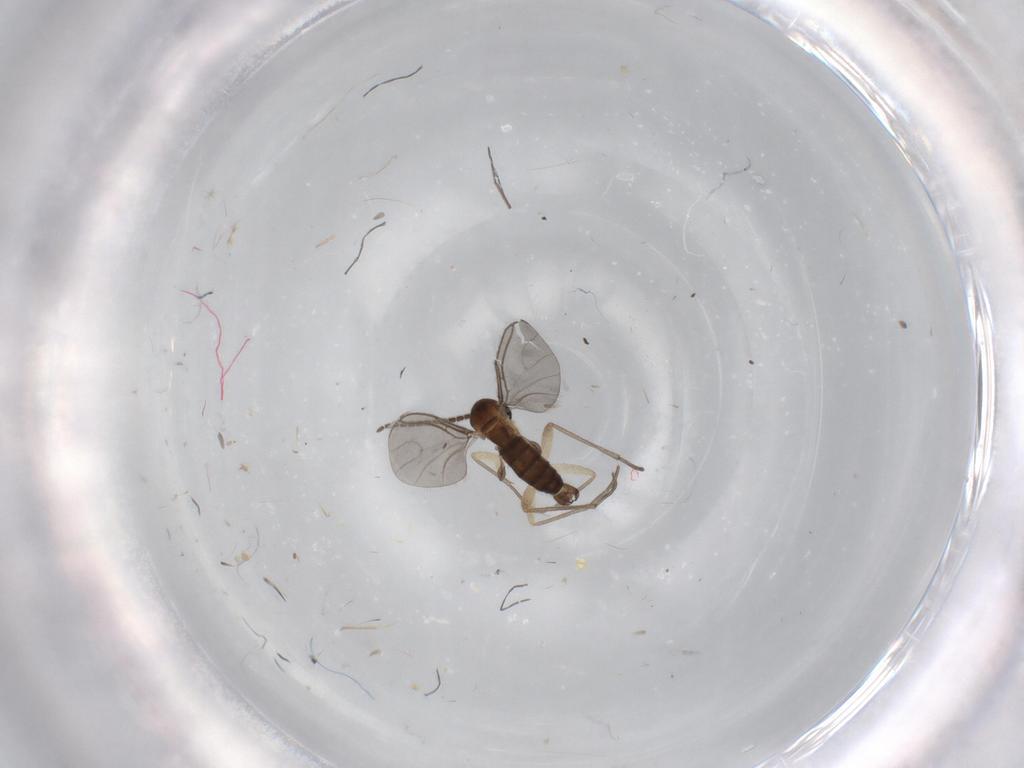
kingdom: Animalia
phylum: Arthropoda
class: Insecta
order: Diptera
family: Sciaridae
